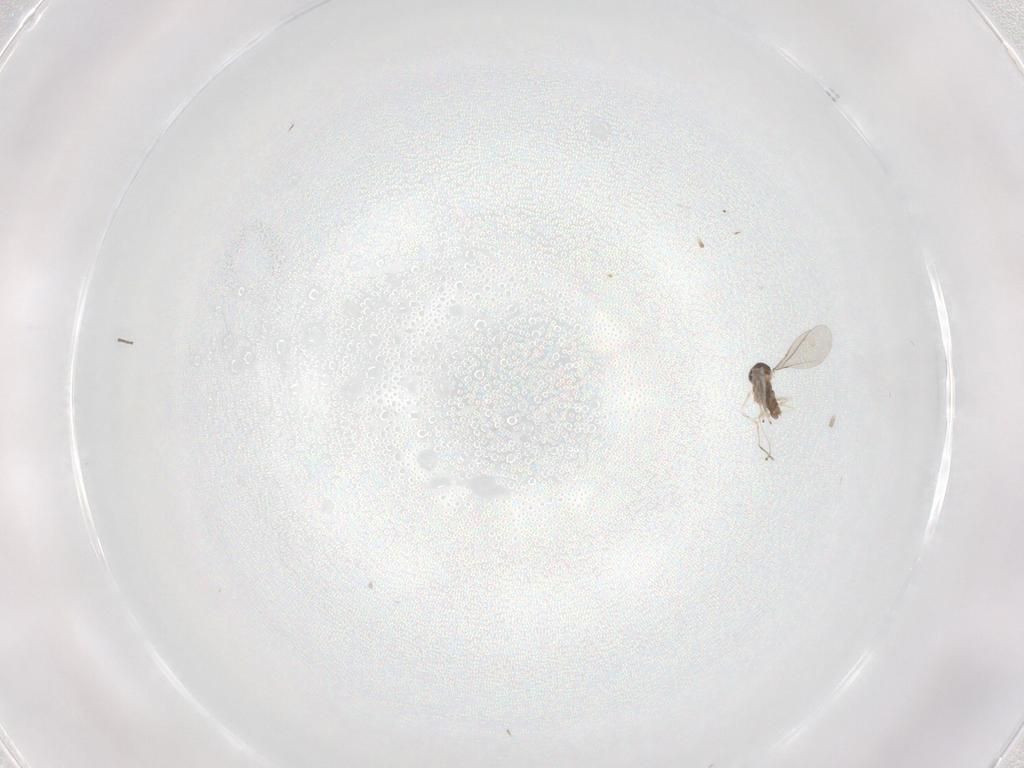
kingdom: Animalia
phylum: Arthropoda
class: Insecta
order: Diptera
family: Cecidomyiidae
